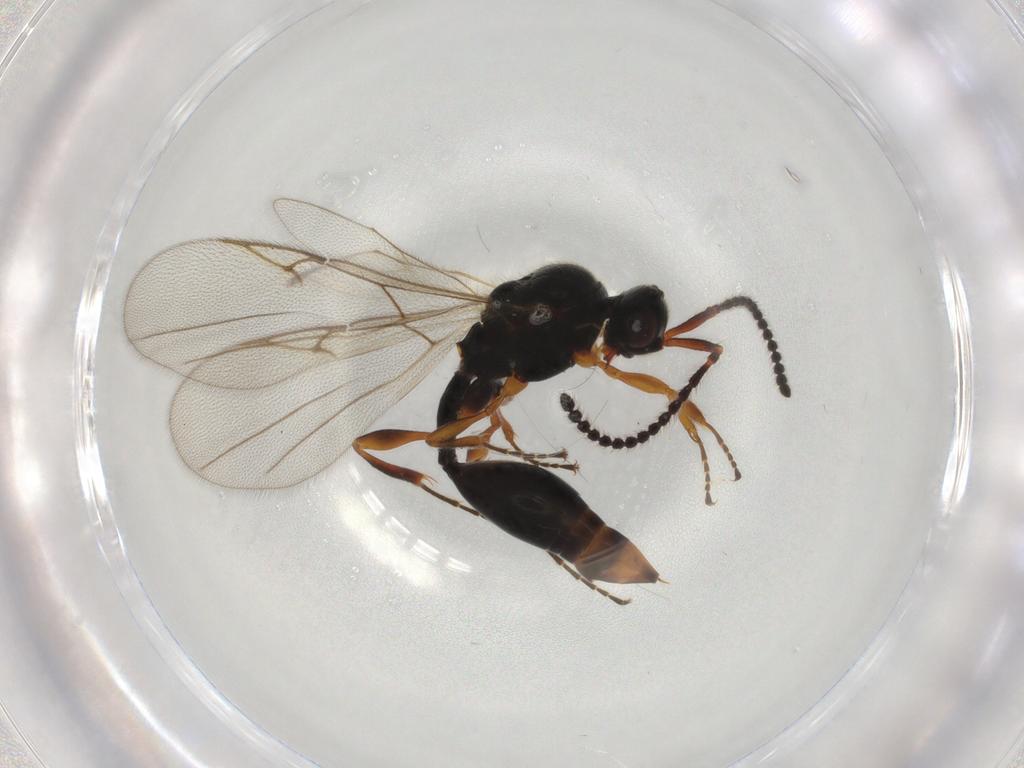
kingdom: Animalia
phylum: Arthropoda
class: Insecta
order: Hymenoptera
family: Diapriidae
